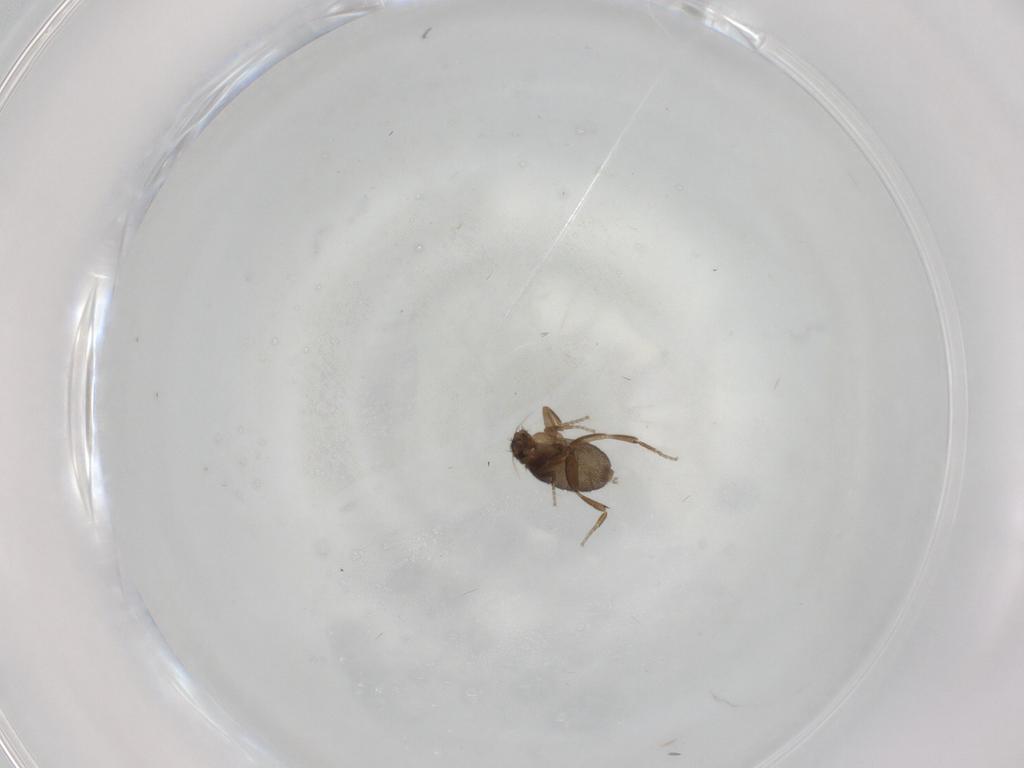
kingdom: Animalia
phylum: Arthropoda
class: Insecta
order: Diptera
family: Phoridae
